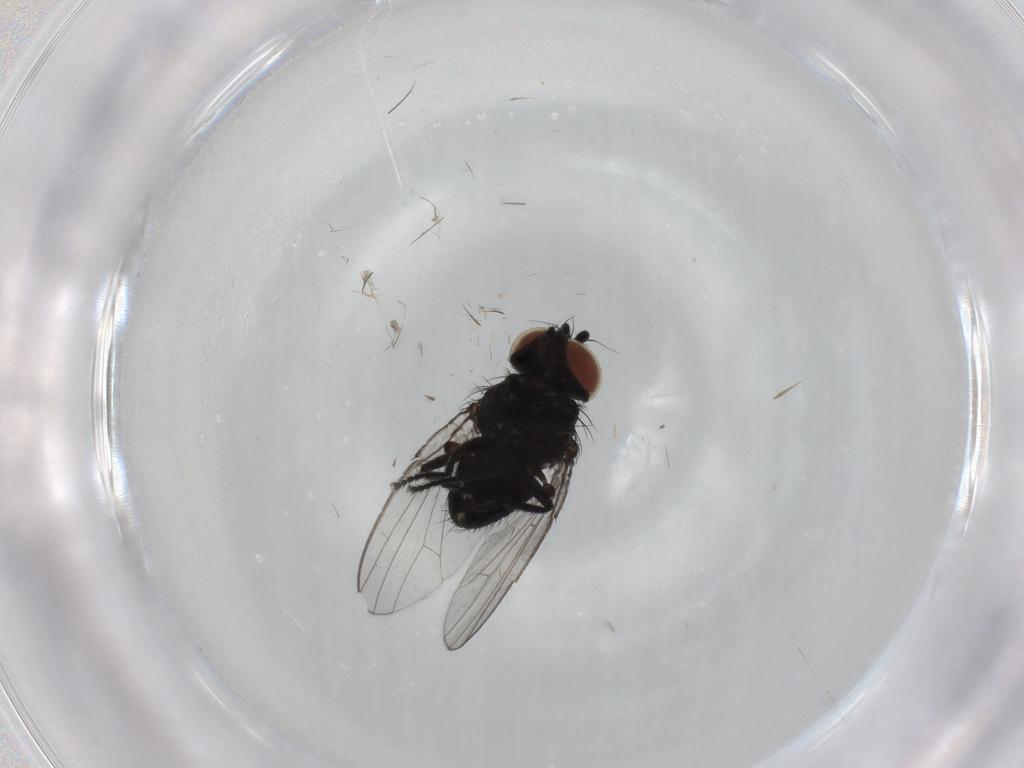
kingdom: Animalia
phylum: Arthropoda
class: Insecta
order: Diptera
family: Milichiidae
